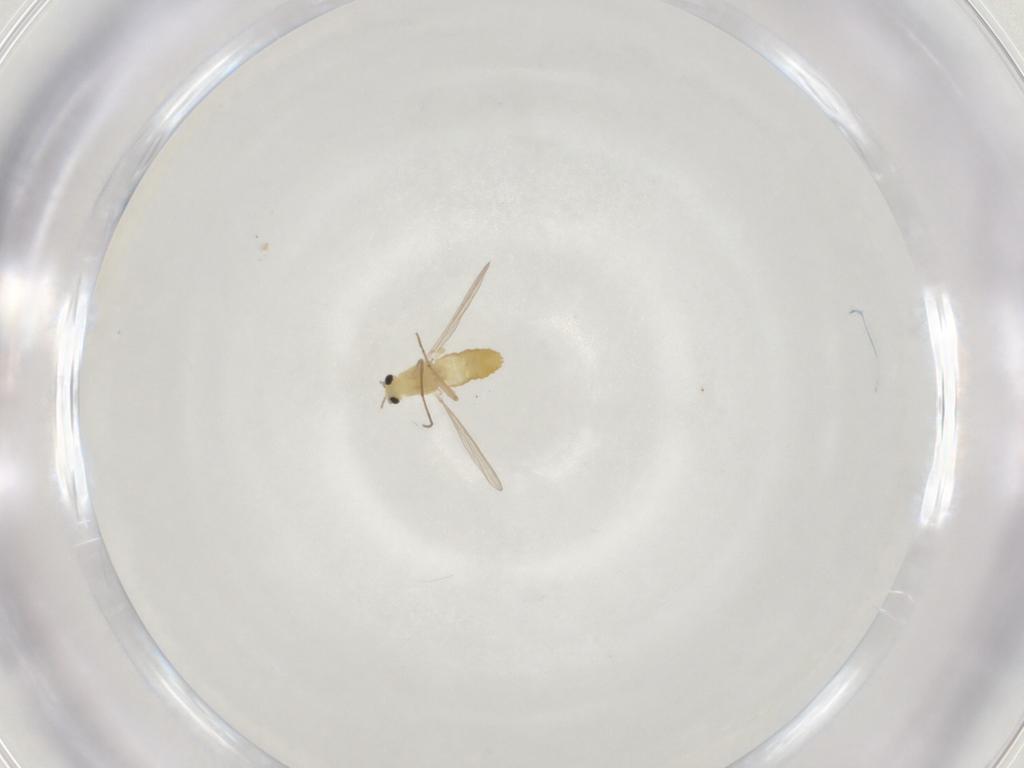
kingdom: Animalia
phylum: Arthropoda
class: Insecta
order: Diptera
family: Chironomidae
